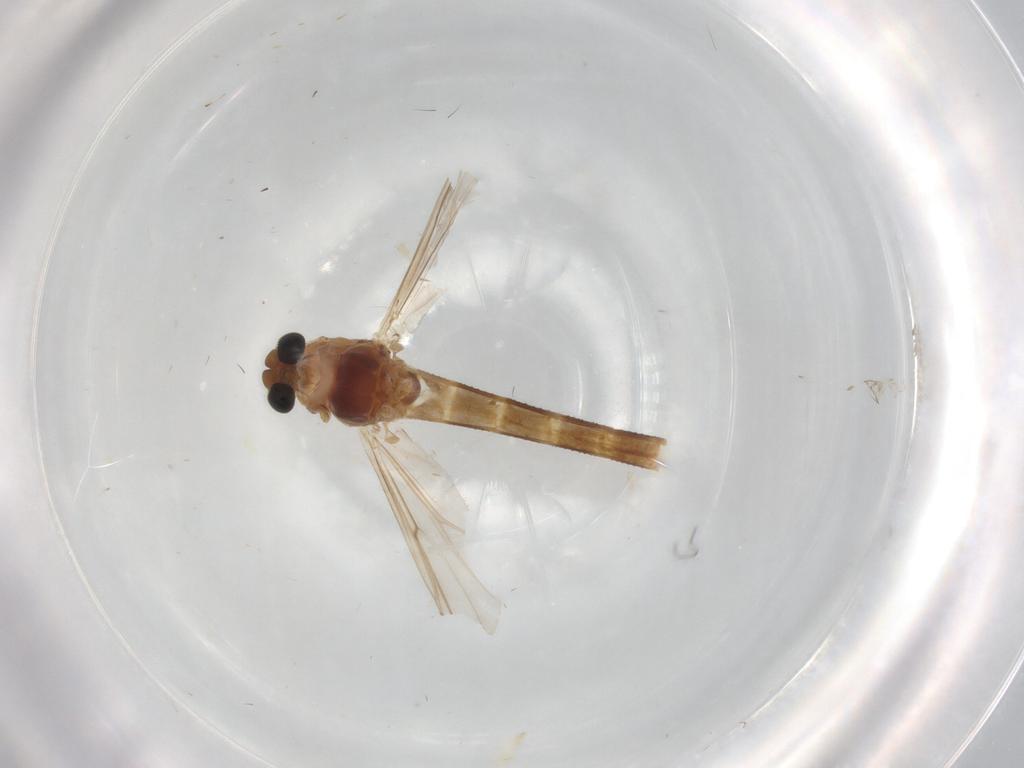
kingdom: Animalia
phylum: Arthropoda
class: Insecta
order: Diptera
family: Chironomidae
